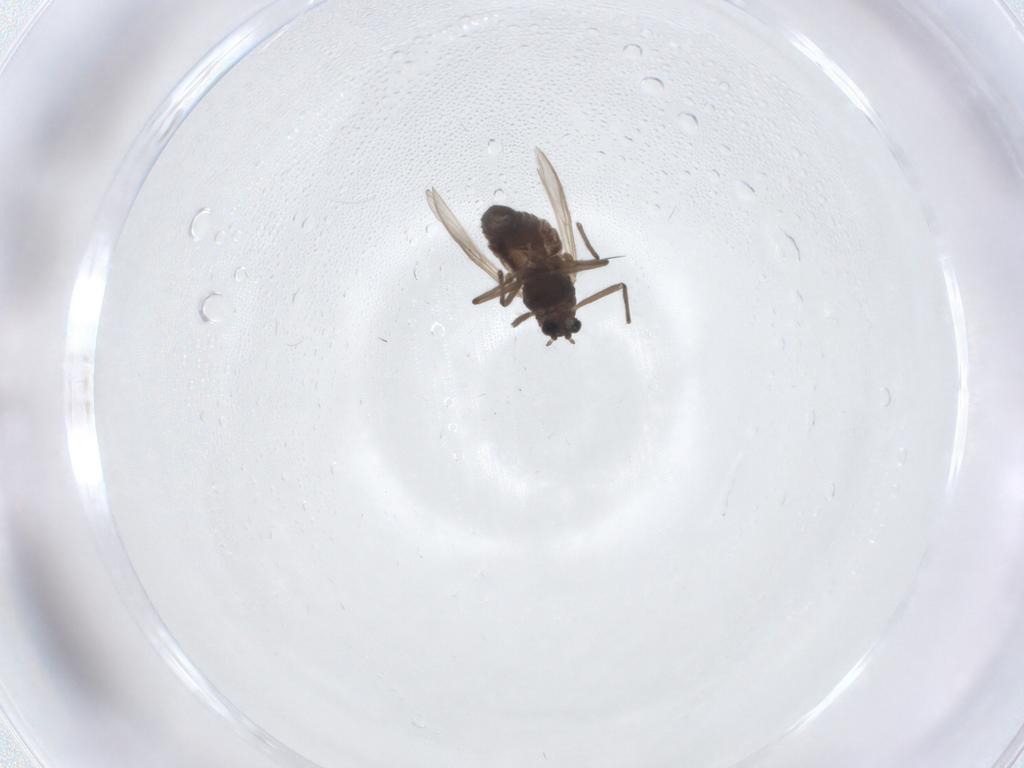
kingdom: Animalia
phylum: Arthropoda
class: Insecta
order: Diptera
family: Chironomidae
